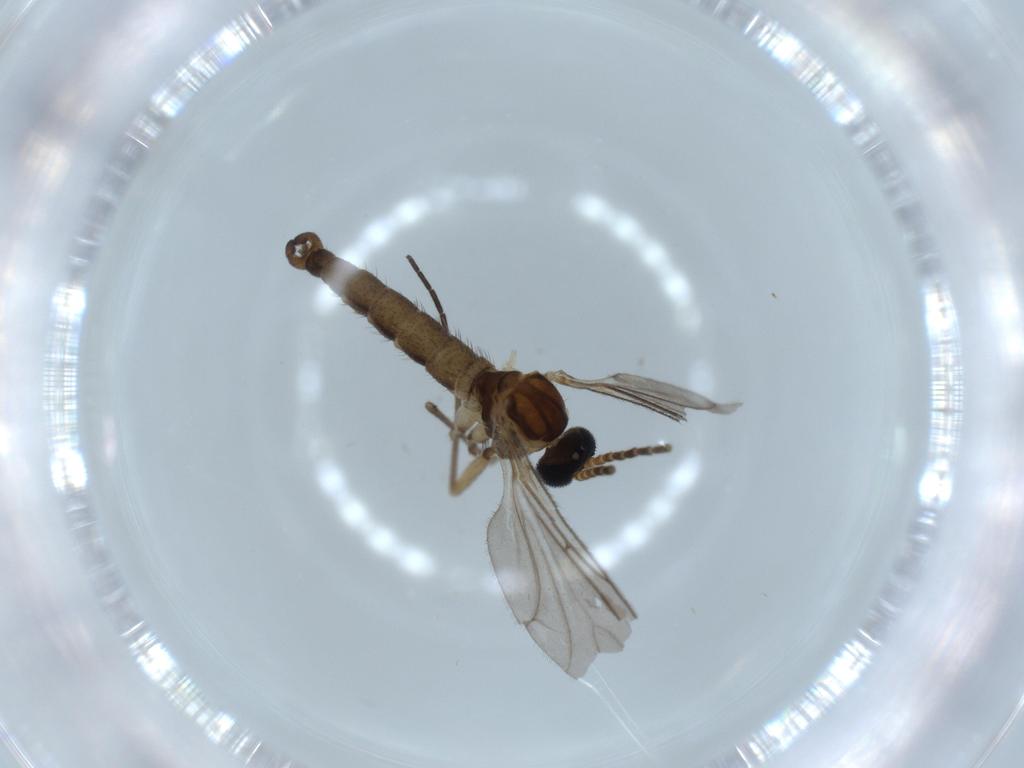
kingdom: Animalia
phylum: Arthropoda
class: Insecta
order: Diptera
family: Sciaridae
